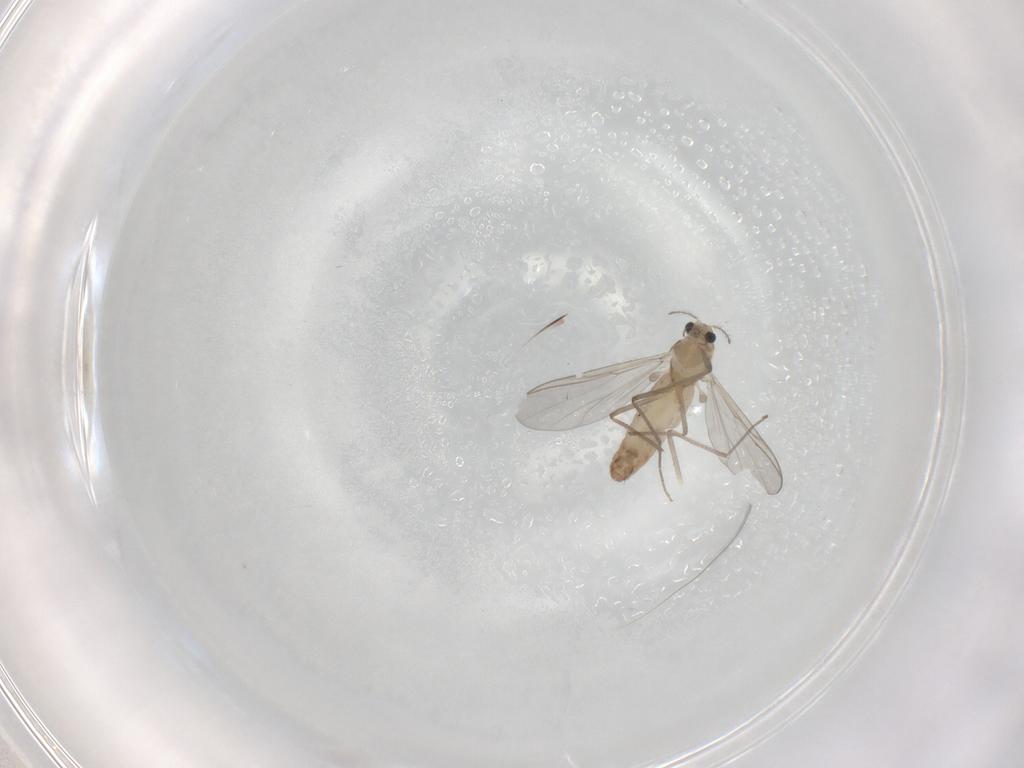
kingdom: Animalia
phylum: Arthropoda
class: Insecta
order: Diptera
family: Chironomidae
